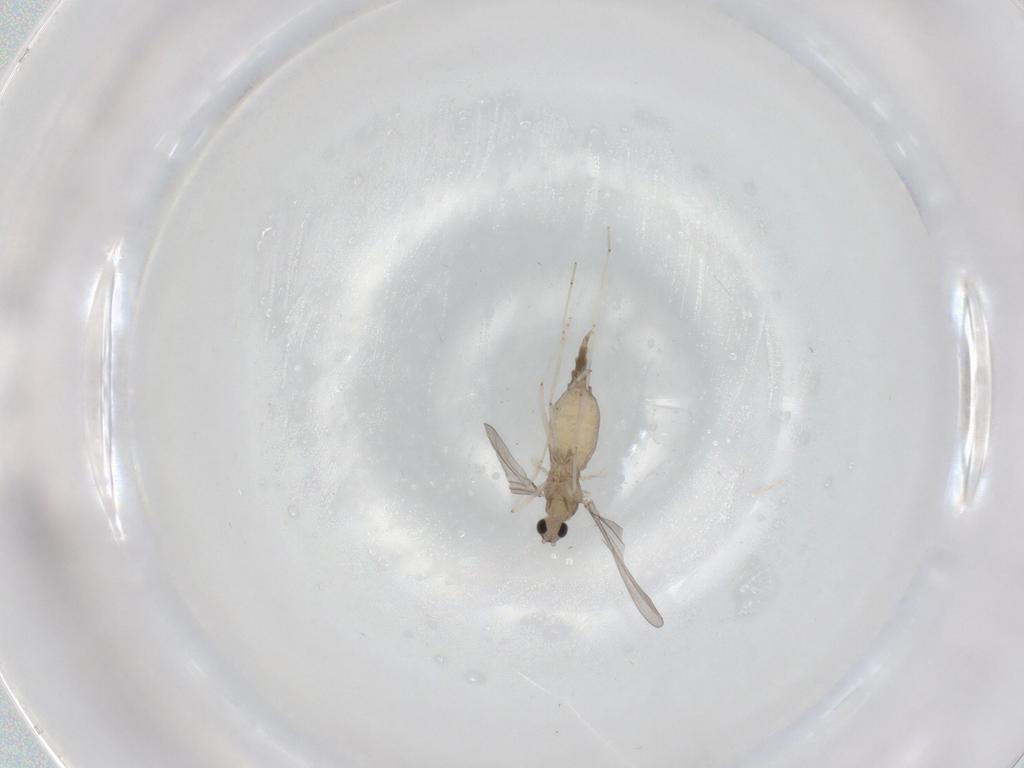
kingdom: Animalia
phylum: Arthropoda
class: Insecta
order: Diptera
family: Cecidomyiidae
